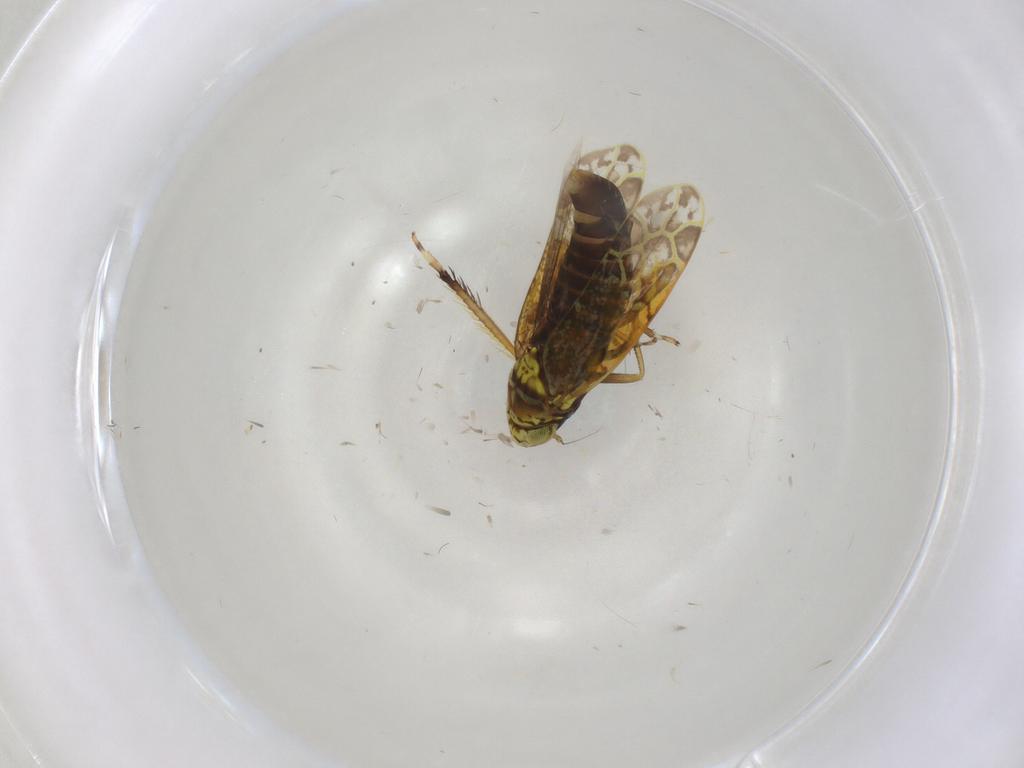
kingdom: Animalia
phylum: Arthropoda
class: Insecta
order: Hemiptera
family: Cicadellidae
